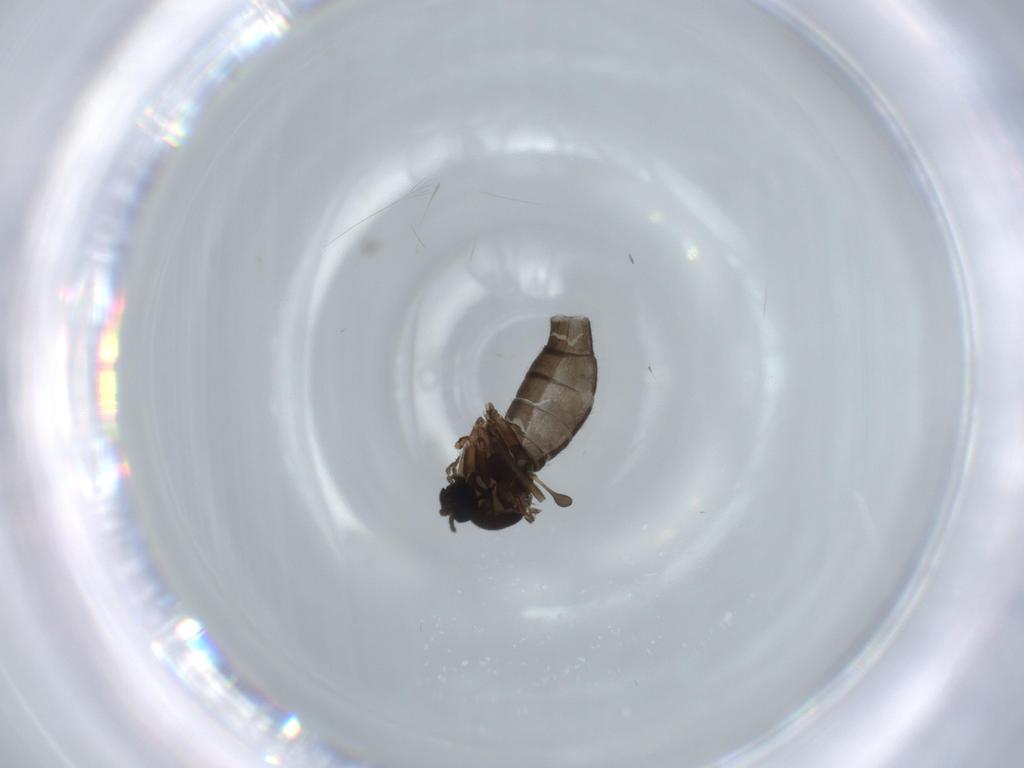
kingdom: Animalia
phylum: Arthropoda
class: Insecta
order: Diptera
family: Sciaridae
